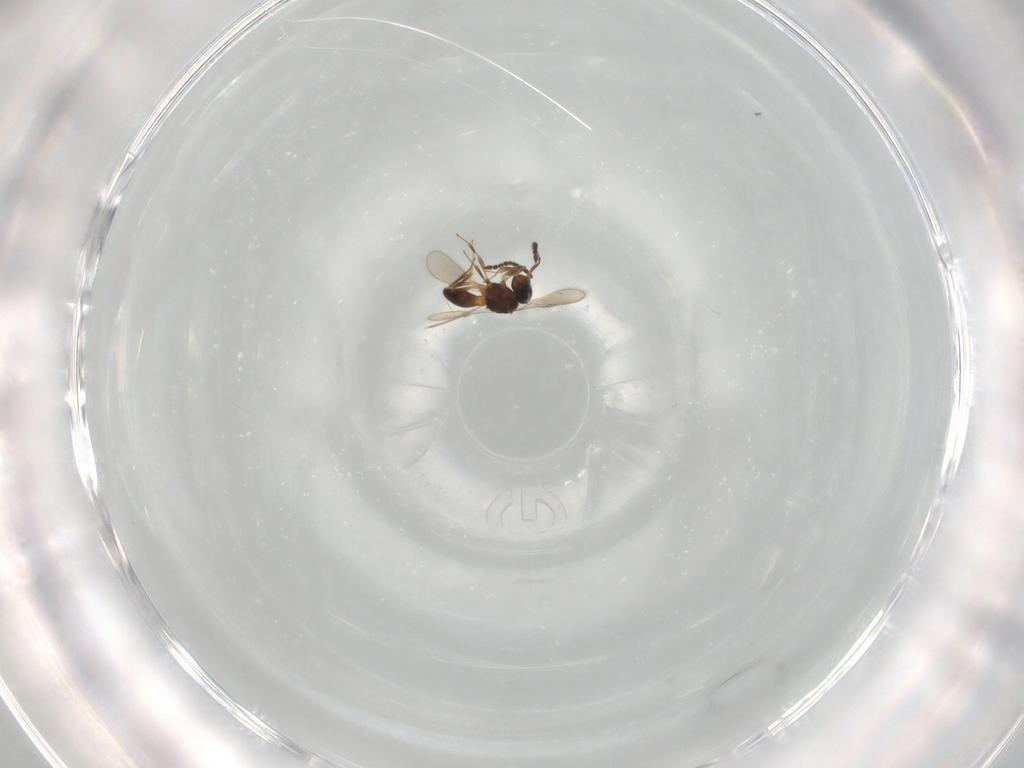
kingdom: Animalia
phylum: Arthropoda
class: Insecta
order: Hymenoptera
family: Scelionidae
